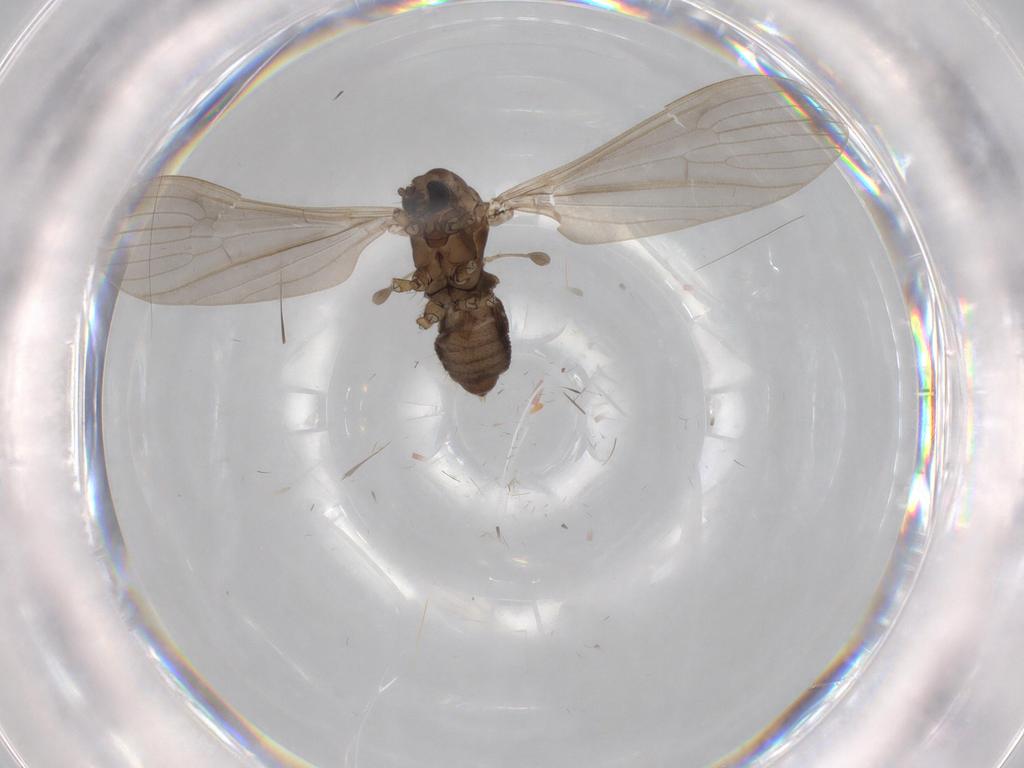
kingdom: Animalia
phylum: Arthropoda
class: Insecta
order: Diptera
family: Limoniidae
